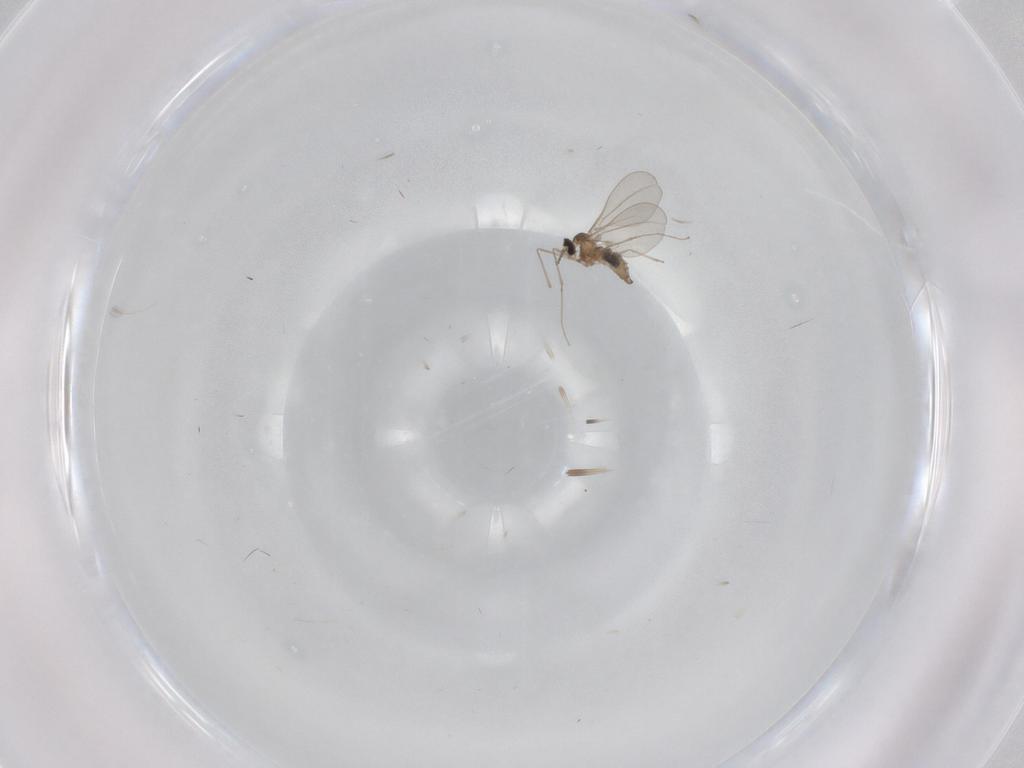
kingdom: Animalia
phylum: Arthropoda
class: Insecta
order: Diptera
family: Cecidomyiidae
